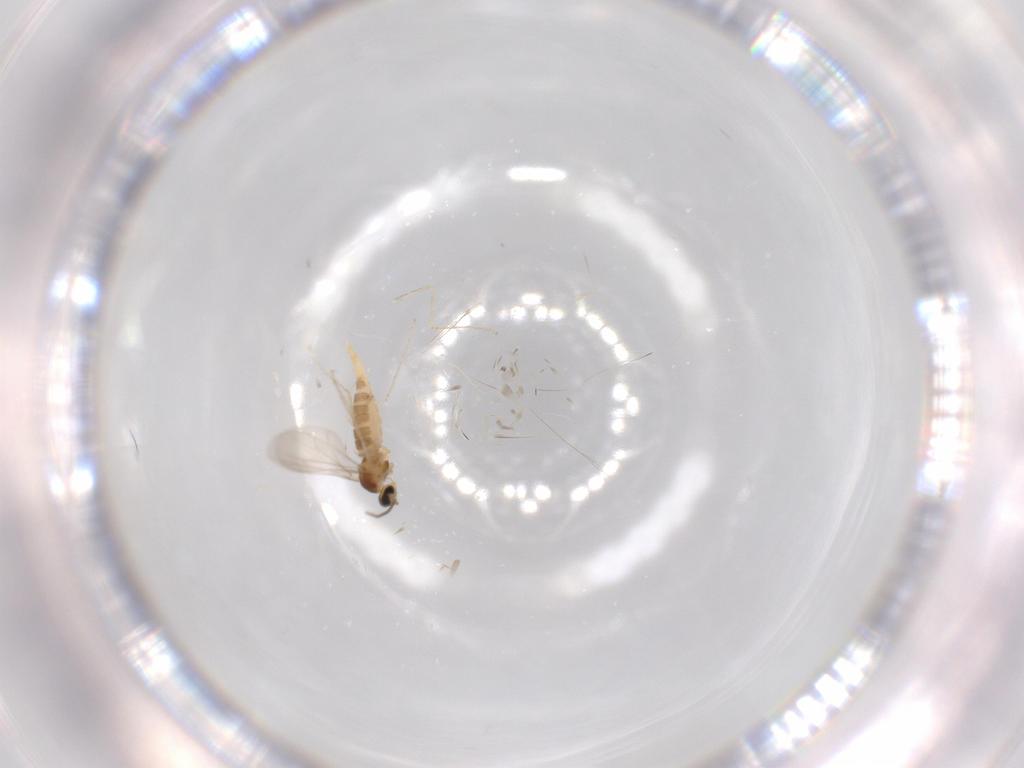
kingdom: Animalia
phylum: Arthropoda
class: Insecta
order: Diptera
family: Cecidomyiidae
